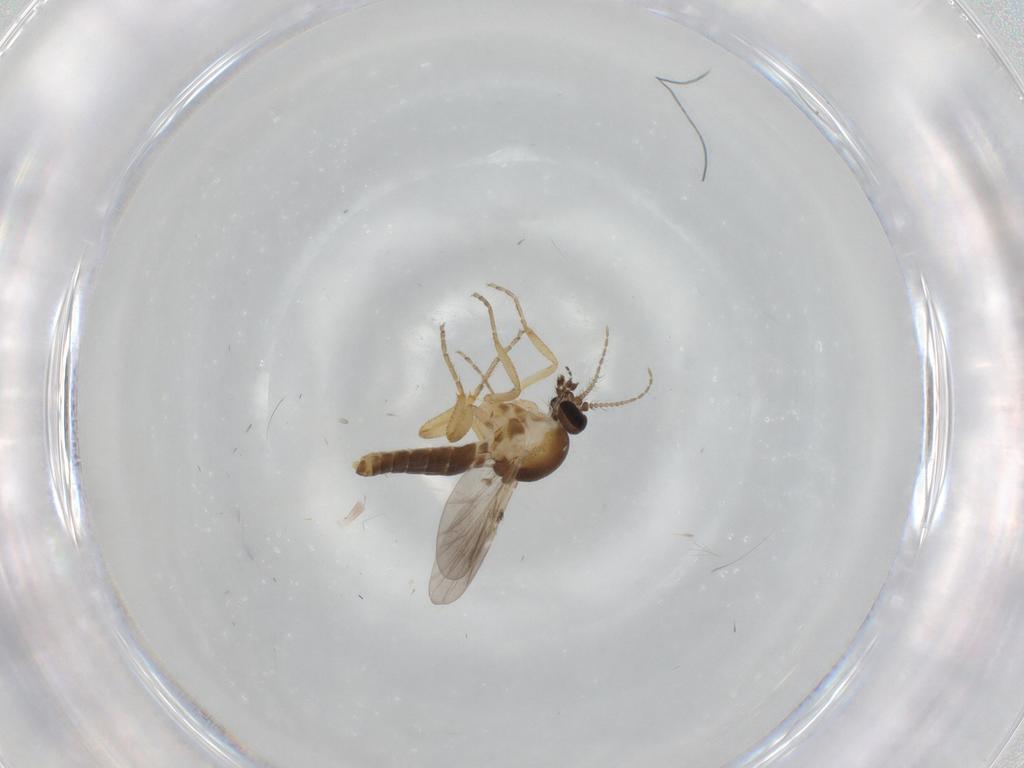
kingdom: Animalia
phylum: Arthropoda
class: Insecta
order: Diptera
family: Ceratopogonidae
